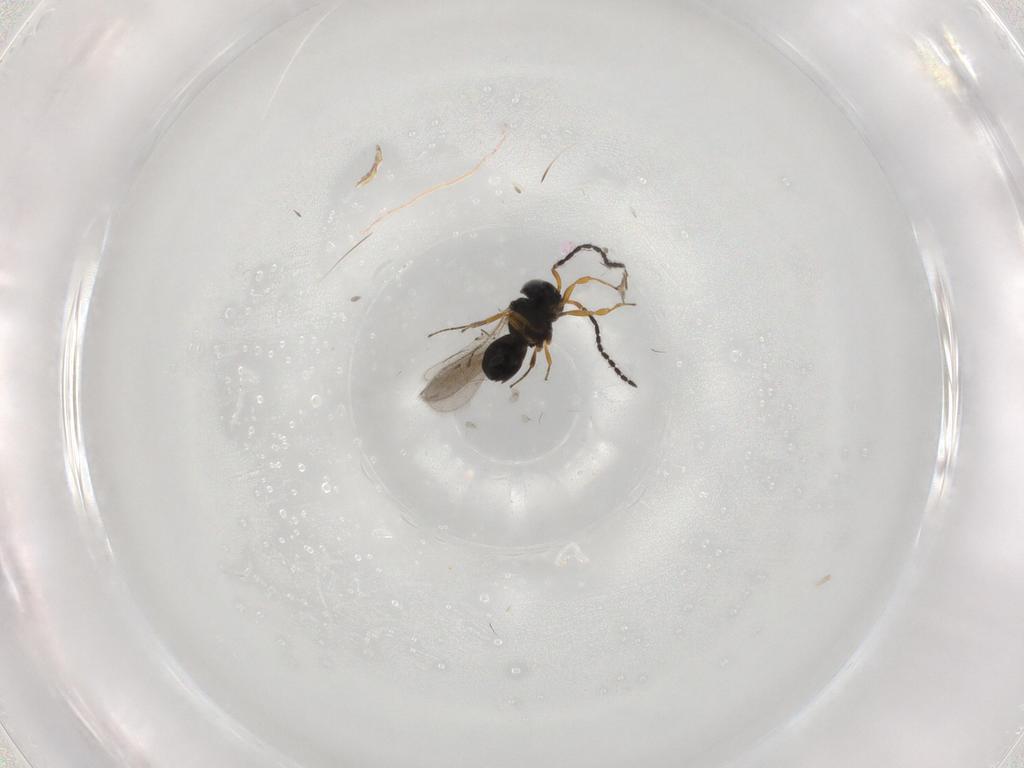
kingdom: Animalia
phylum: Arthropoda
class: Insecta
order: Hymenoptera
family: Scelionidae
